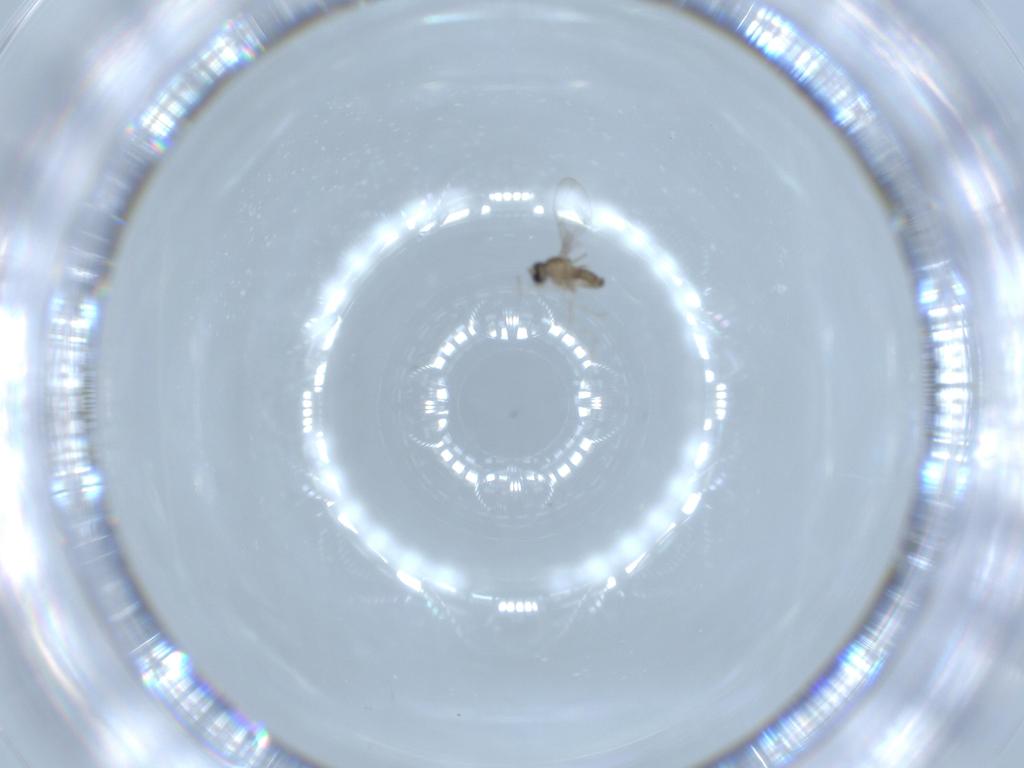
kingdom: Animalia
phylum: Arthropoda
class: Insecta
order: Diptera
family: Cecidomyiidae
